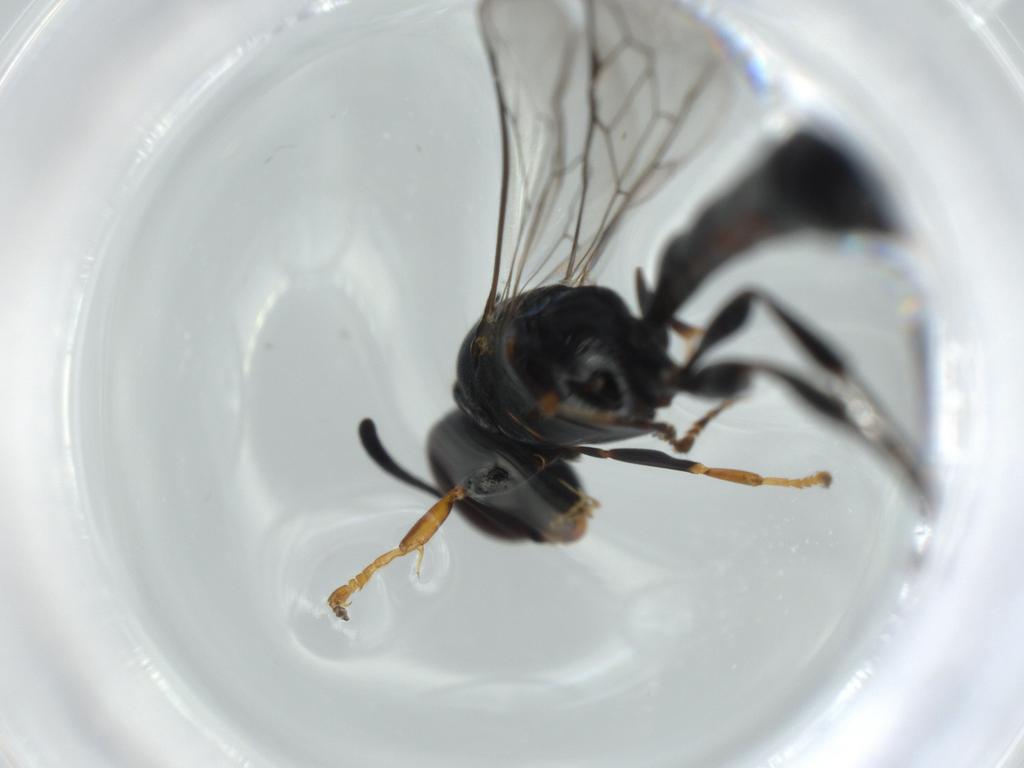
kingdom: Animalia
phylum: Arthropoda
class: Insecta
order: Hymenoptera
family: Platygastridae
